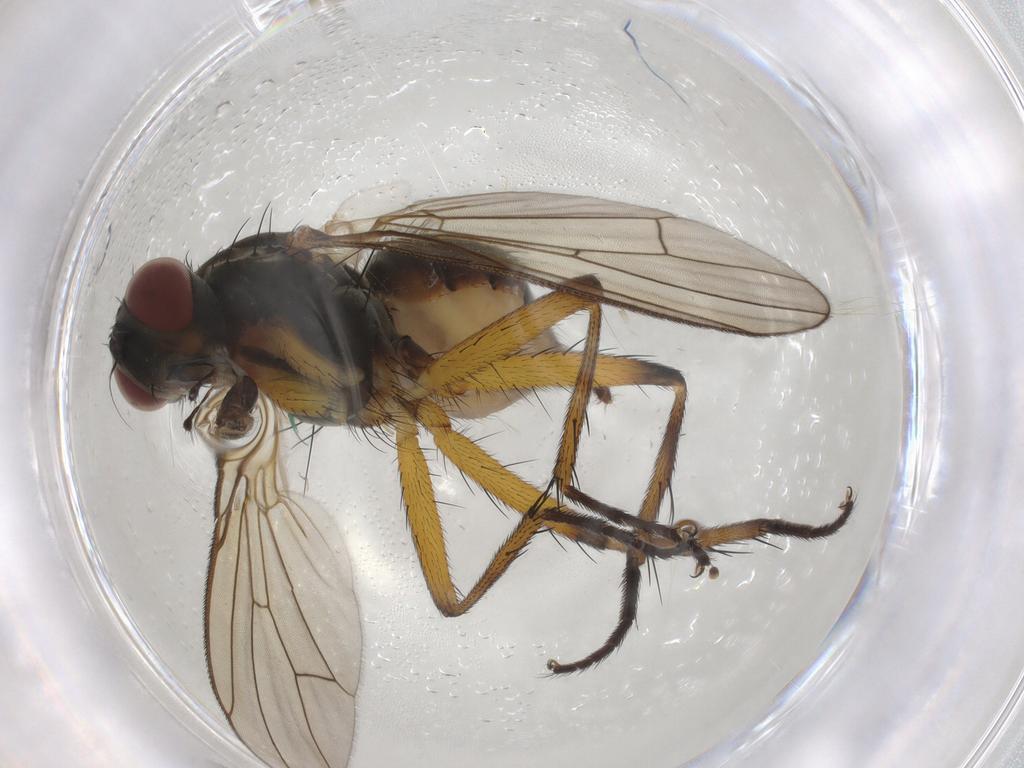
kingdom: Animalia
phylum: Arthropoda
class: Insecta
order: Diptera
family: Muscidae
